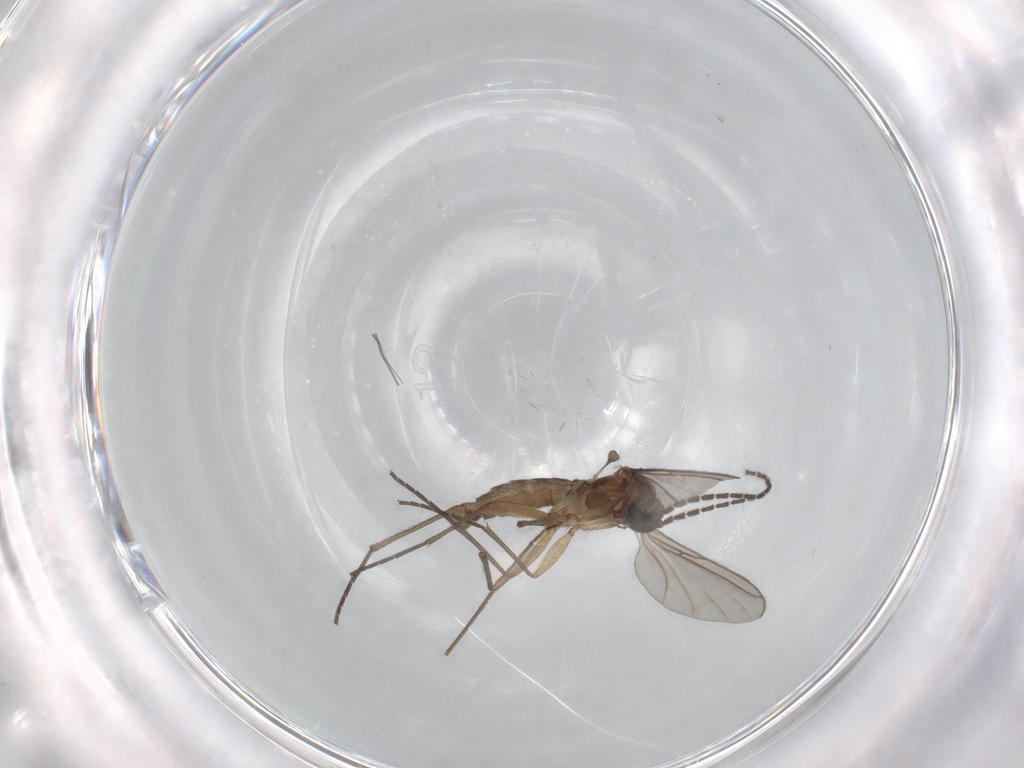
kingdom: Animalia
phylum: Arthropoda
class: Insecta
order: Diptera
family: Sciaridae
